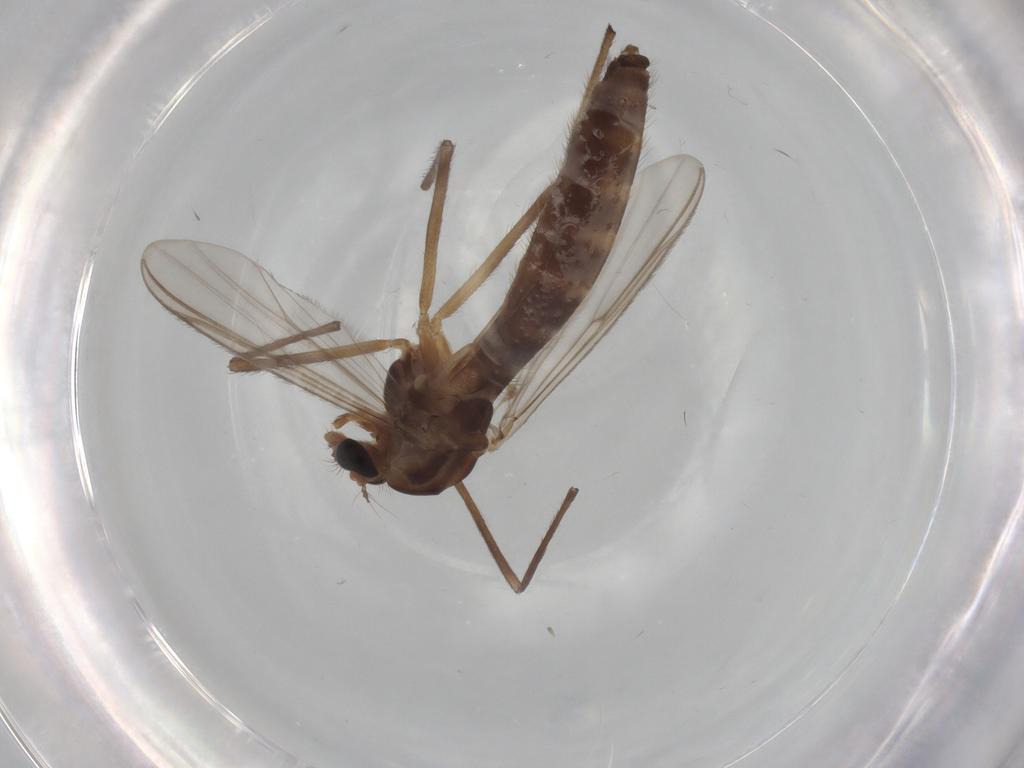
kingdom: Animalia
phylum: Arthropoda
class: Insecta
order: Diptera
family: Chironomidae
